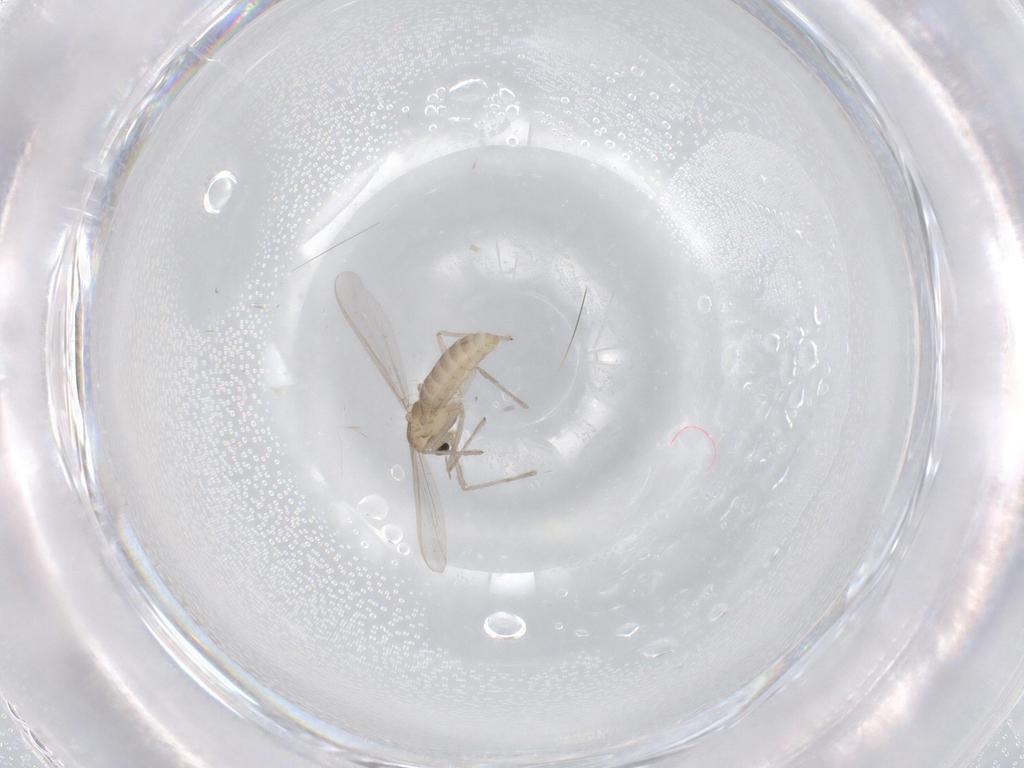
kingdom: Animalia
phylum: Arthropoda
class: Insecta
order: Diptera
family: Chironomidae
